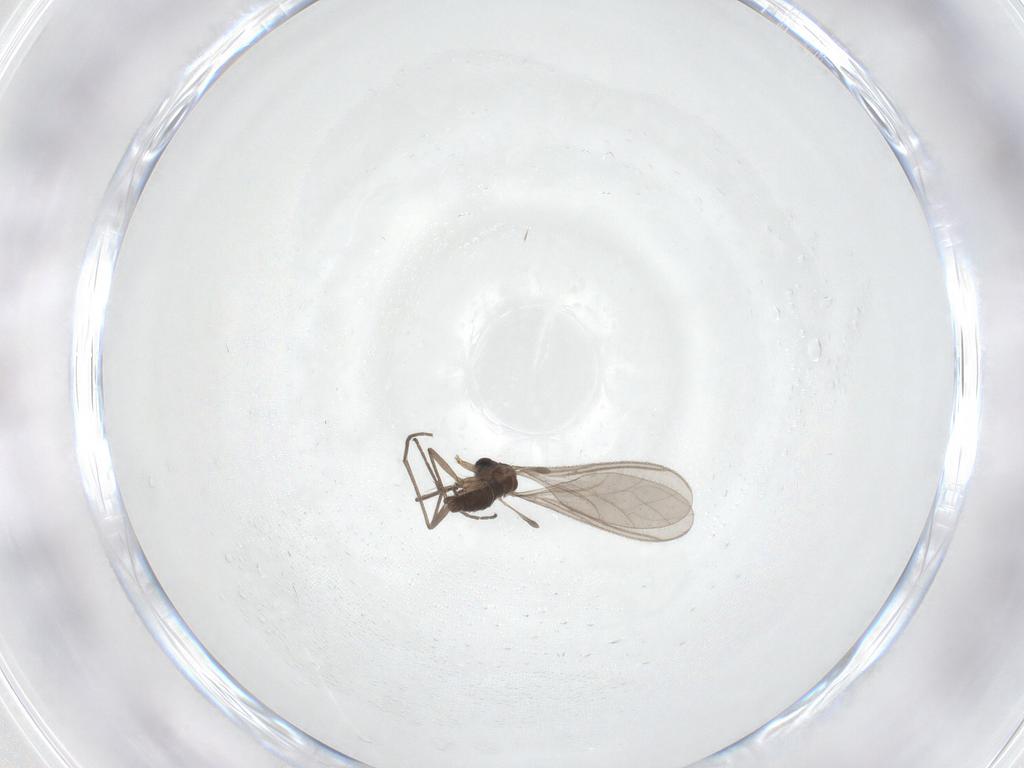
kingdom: Animalia
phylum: Arthropoda
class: Insecta
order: Diptera
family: Sciaridae
